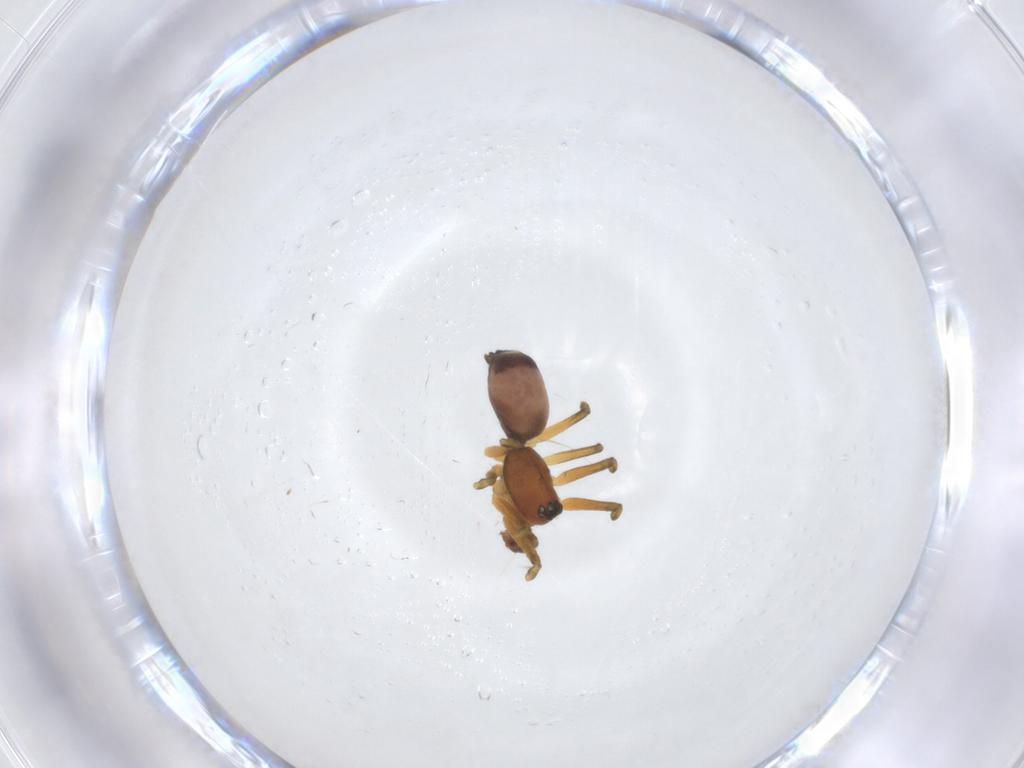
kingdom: Animalia
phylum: Arthropoda
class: Arachnida
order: Araneae
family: Linyphiidae
